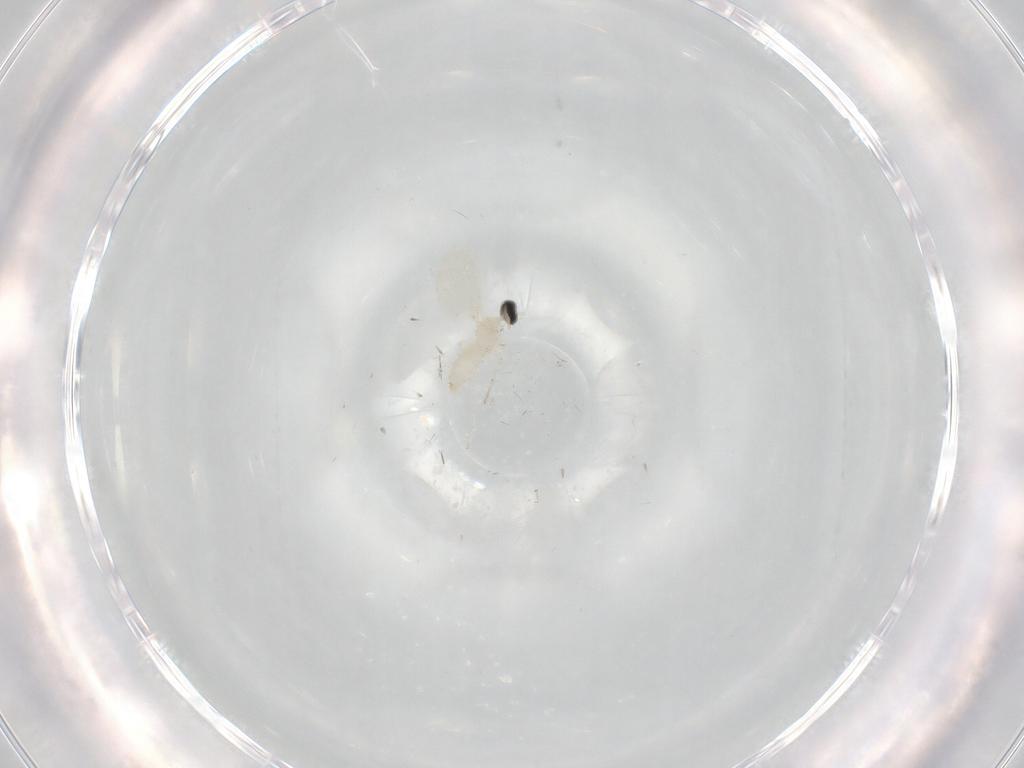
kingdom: Animalia
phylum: Arthropoda
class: Insecta
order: Diptera
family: Cecidomyiidae
